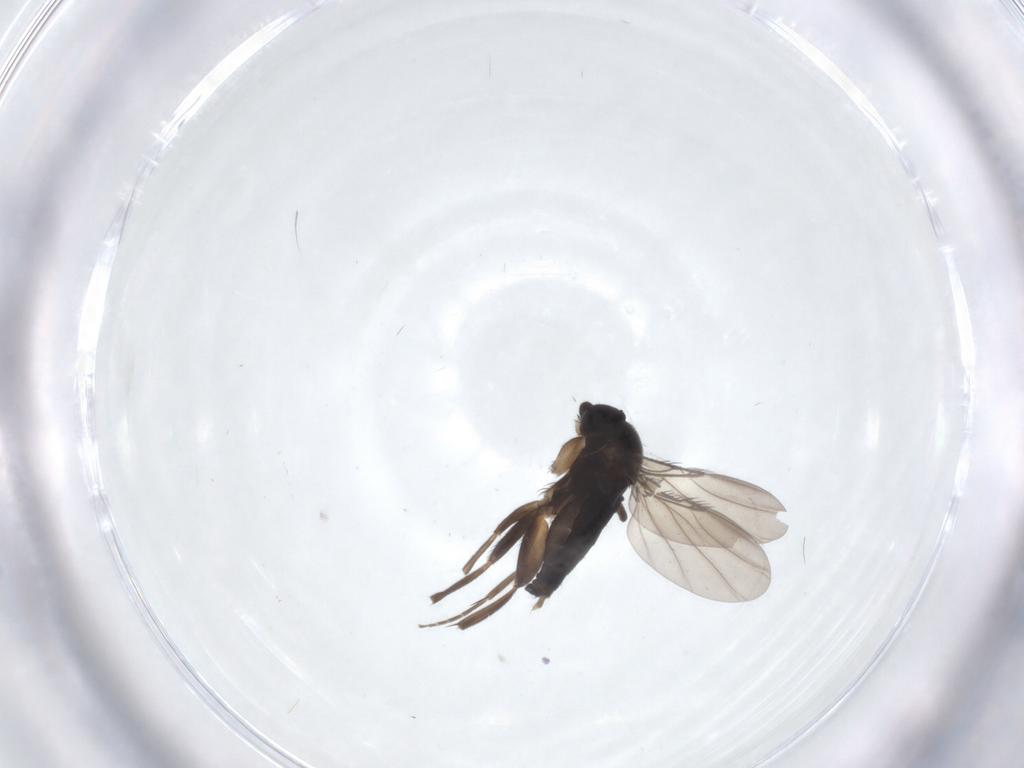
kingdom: Animalia
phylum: Arthropoda
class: Insecta
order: Diptera
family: Phoridae
